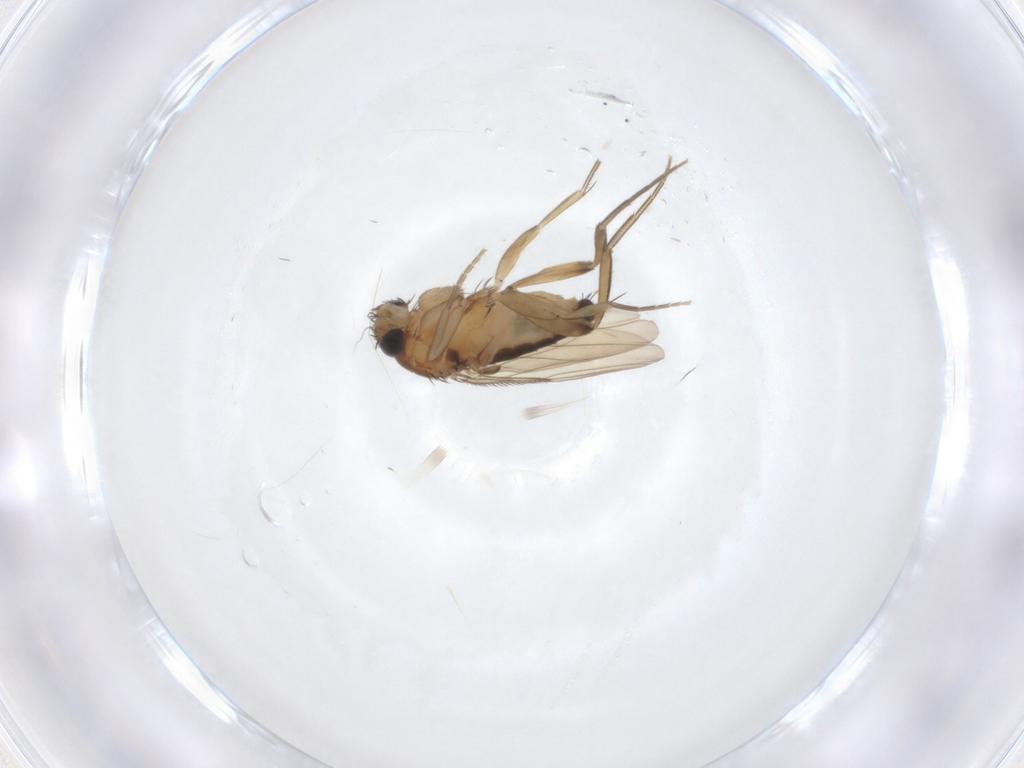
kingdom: Animalia
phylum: Arthropoda
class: Insecta
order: Diptera
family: Phoridae
